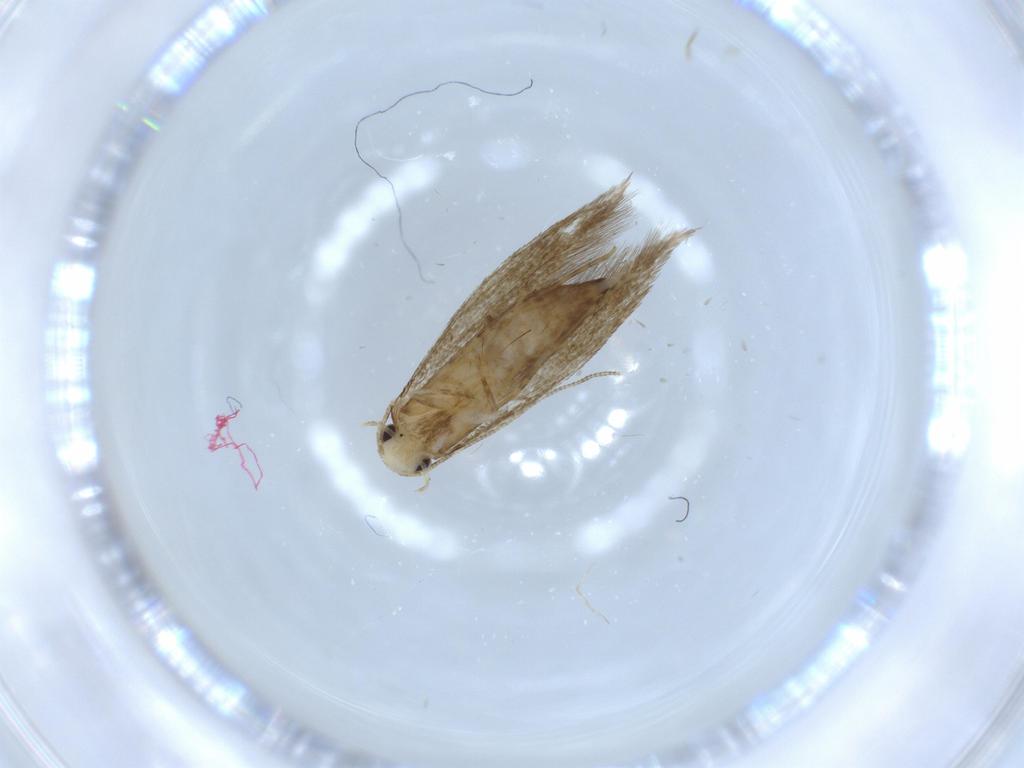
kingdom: Animalia
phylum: Arthropoda
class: Insecta
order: Lepidoptera
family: Tineidae
